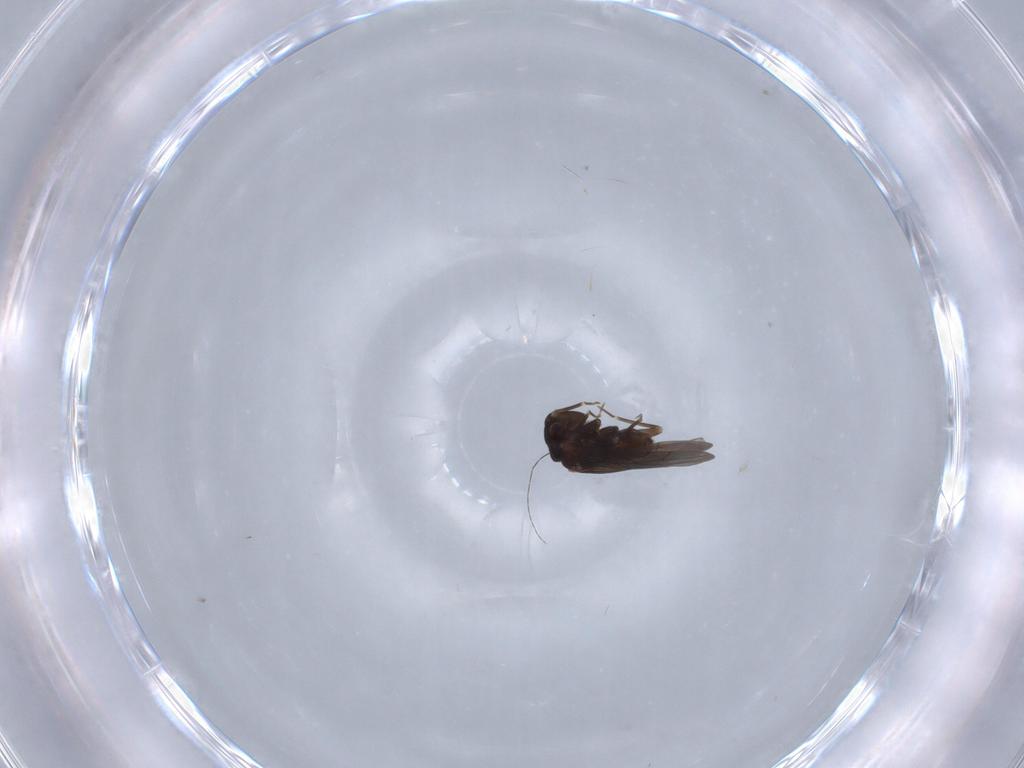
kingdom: Animalia
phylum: Arthropoda
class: Insecta
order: Psocodea
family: Lepidopsocidae
